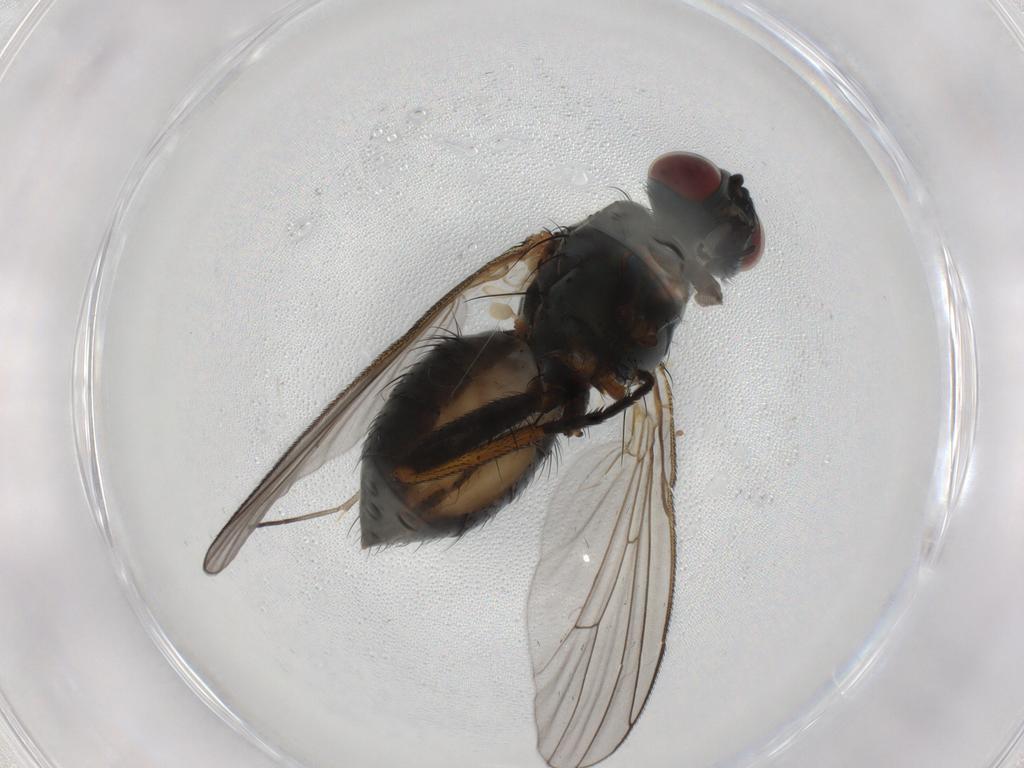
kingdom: Animalia
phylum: Arthropoda
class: Insecta
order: Diptera
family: Muscidae
